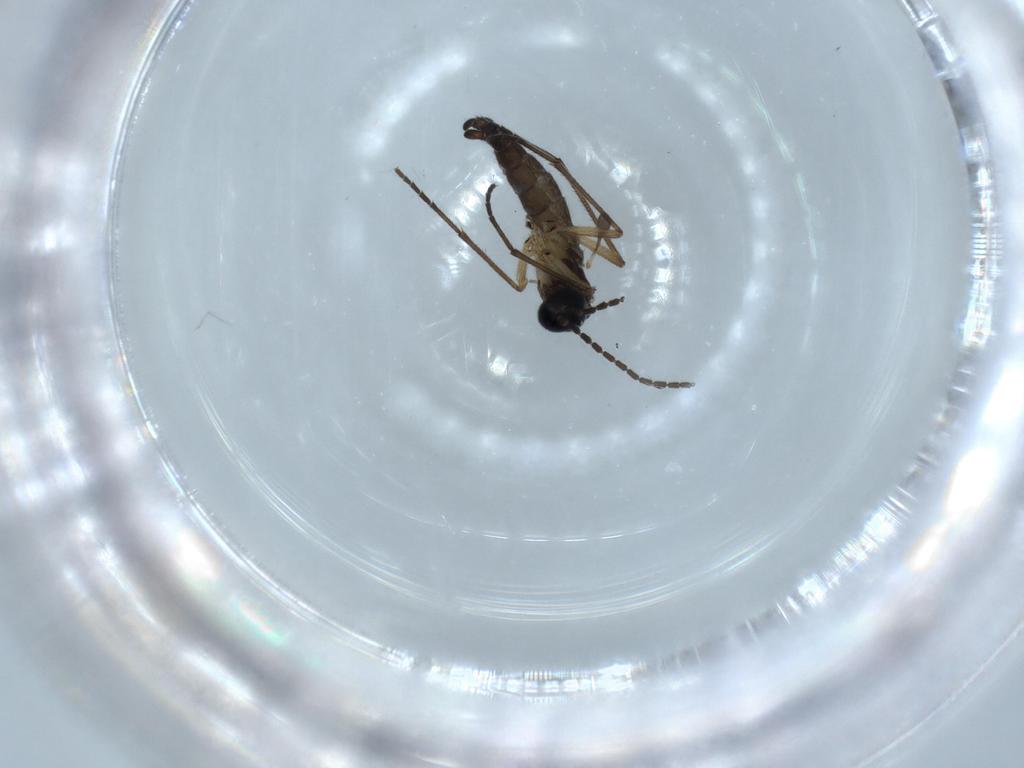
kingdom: Animalia
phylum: Arthropoda
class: Insecta
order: Diptera
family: Sciaridae
